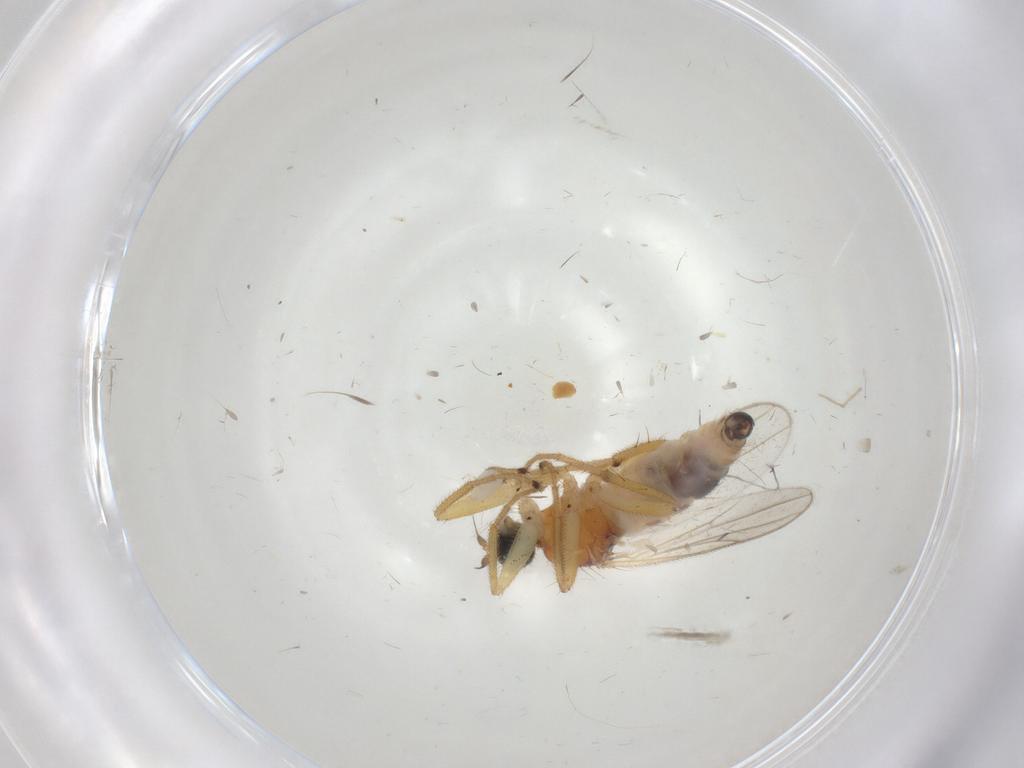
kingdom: Animalia
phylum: Arthropoda
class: Insecta
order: Diptera
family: Hybotidae
